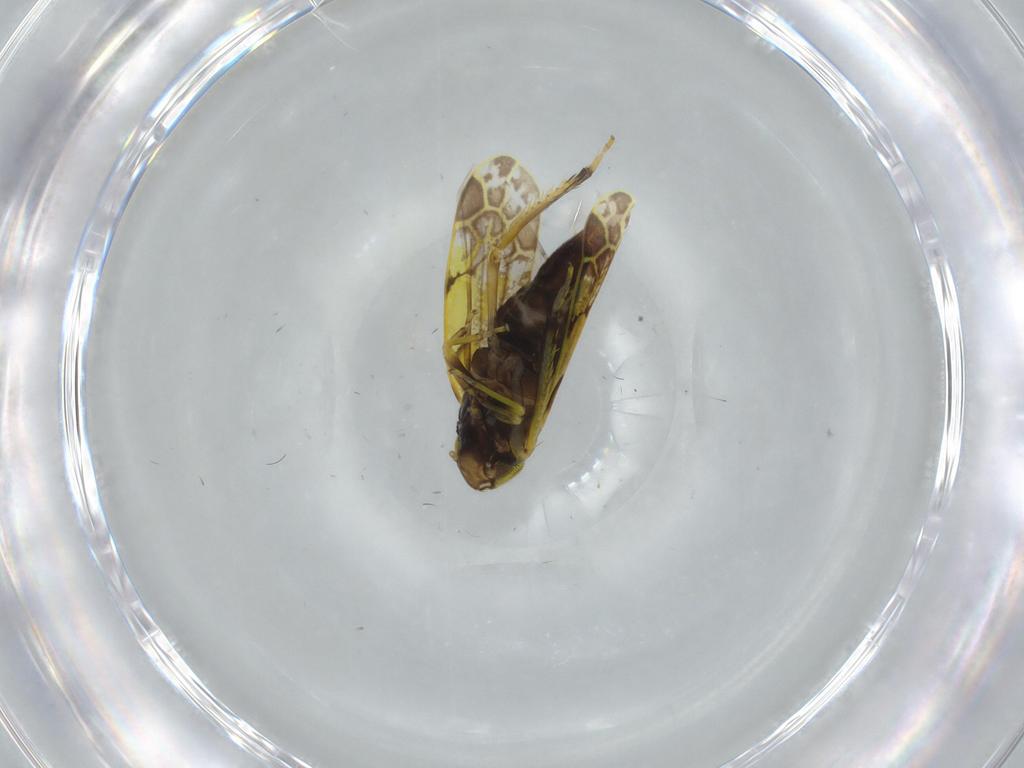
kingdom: Animalia
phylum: Arthropoda
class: Insecta
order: Hemiptera
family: Cicadellidae
